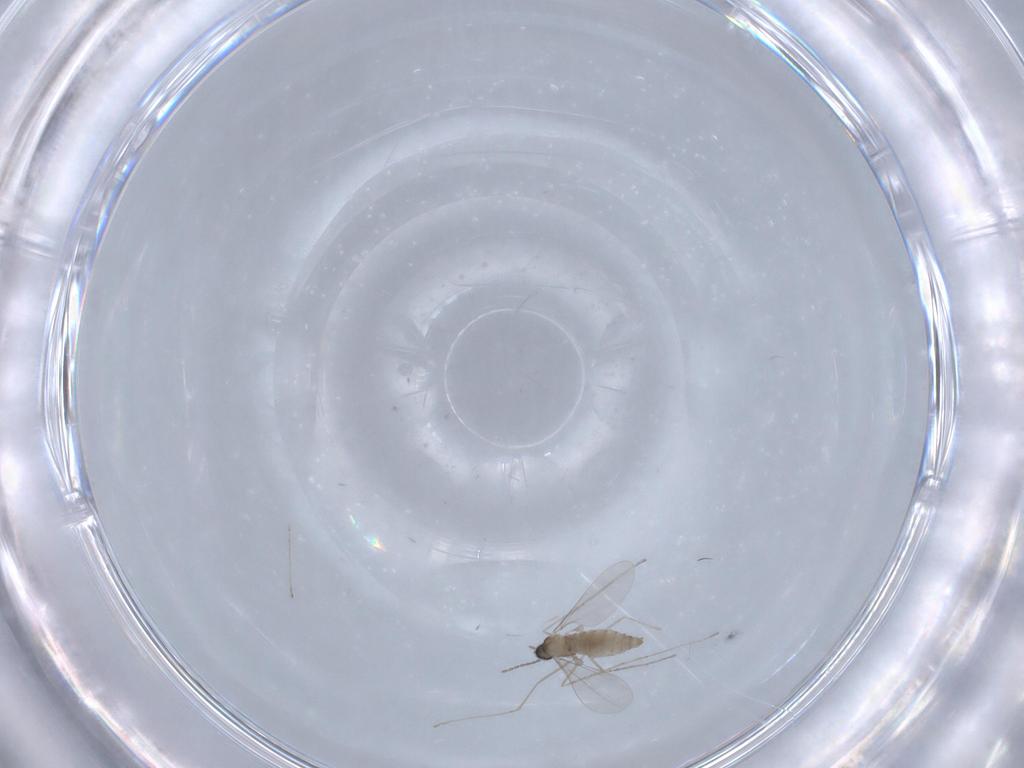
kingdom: Animalia
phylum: Arthropoda
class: Insecta
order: Diptera
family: Cecidomyiidae
